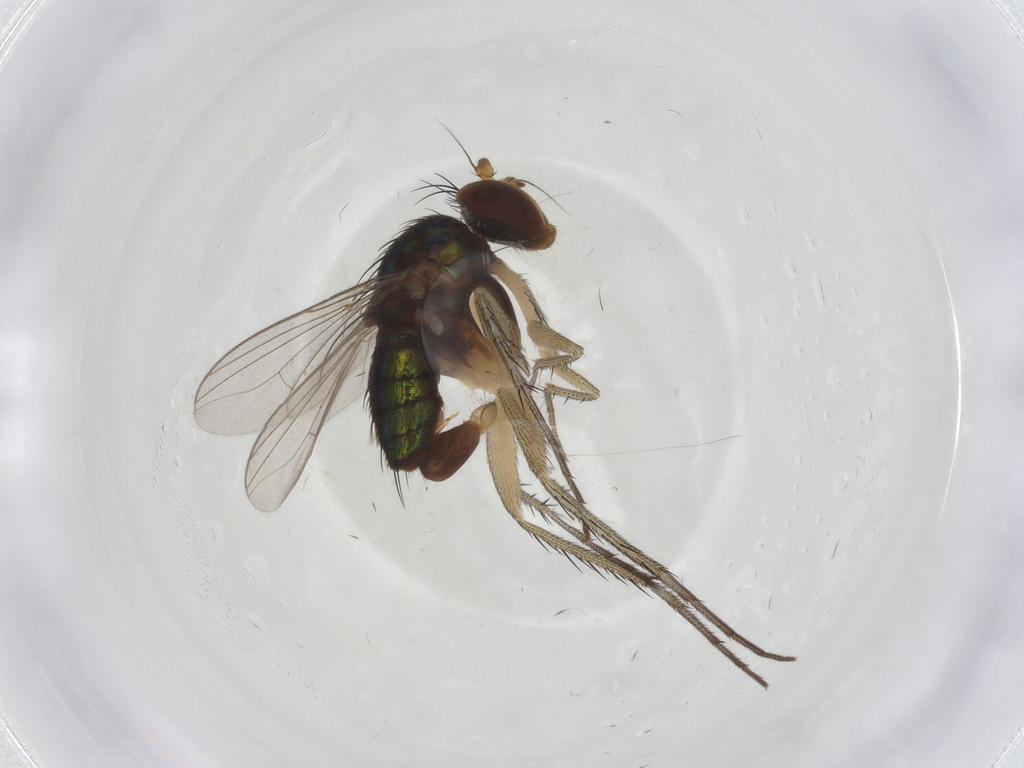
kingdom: Animalia
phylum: Arthropoda
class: Insecta
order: Diptera
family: Dolichopodidae
